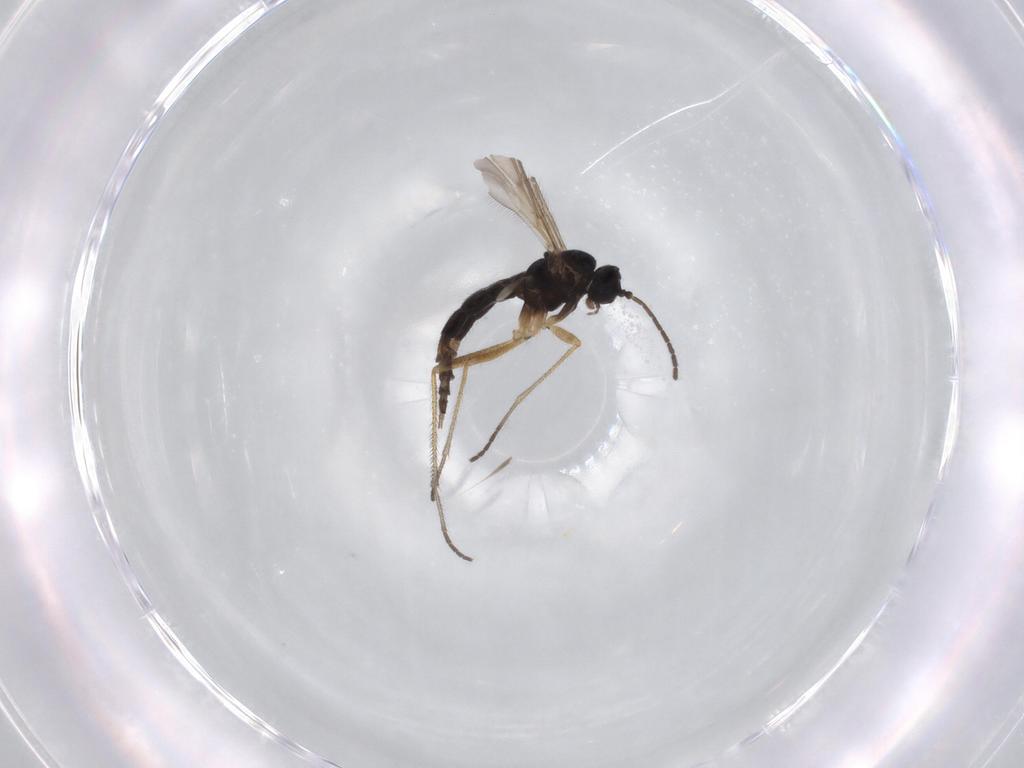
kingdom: Animalia
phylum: Arthropoda
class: Insecta
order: Diptera
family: Sciaridae
